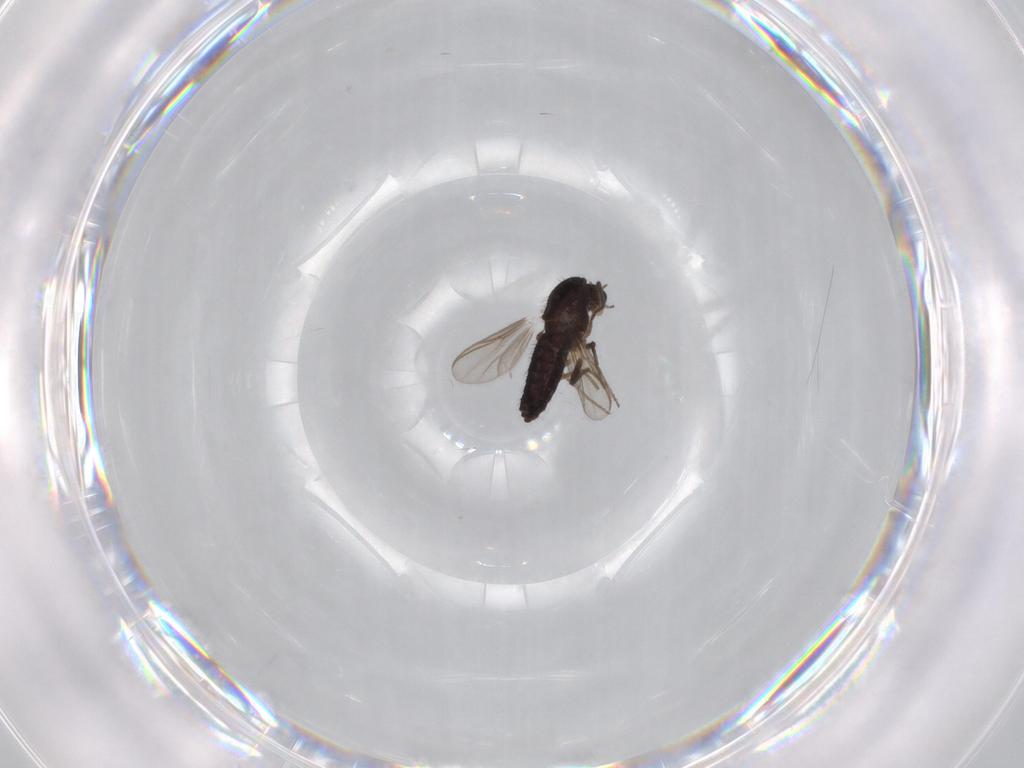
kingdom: Animalia
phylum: Arthropoda
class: Insecta
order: Diptera
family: Chironomidae
